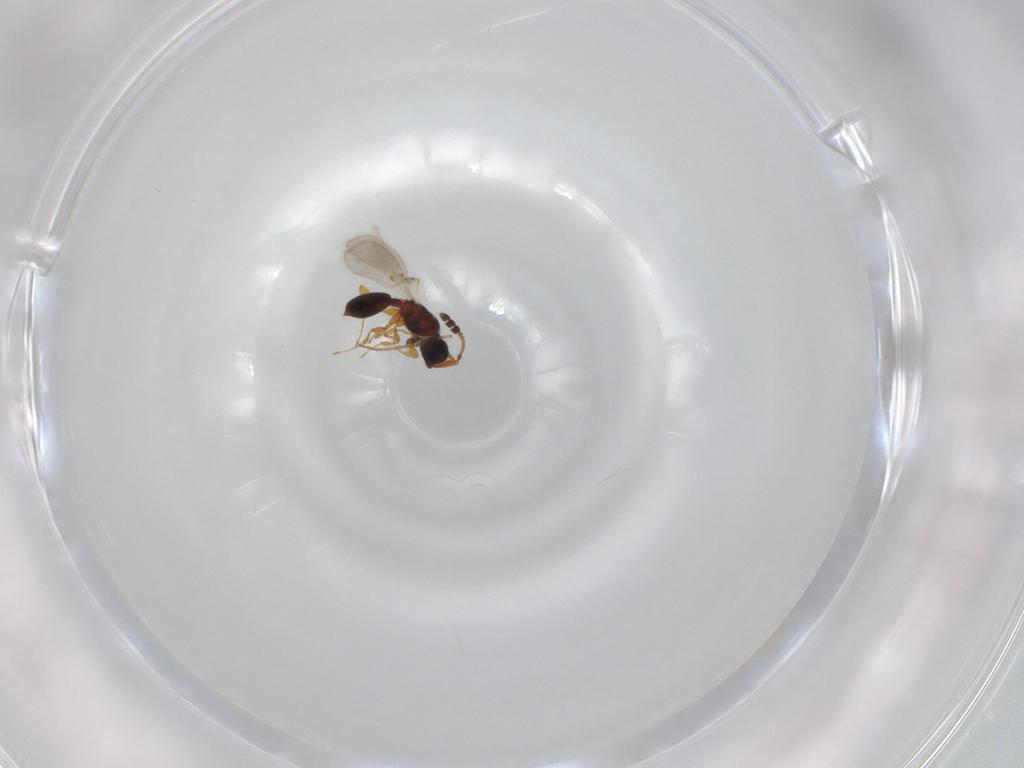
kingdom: Animalia
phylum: Arthropoda
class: Insecta
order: Hymenoptera
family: Diapriidae
